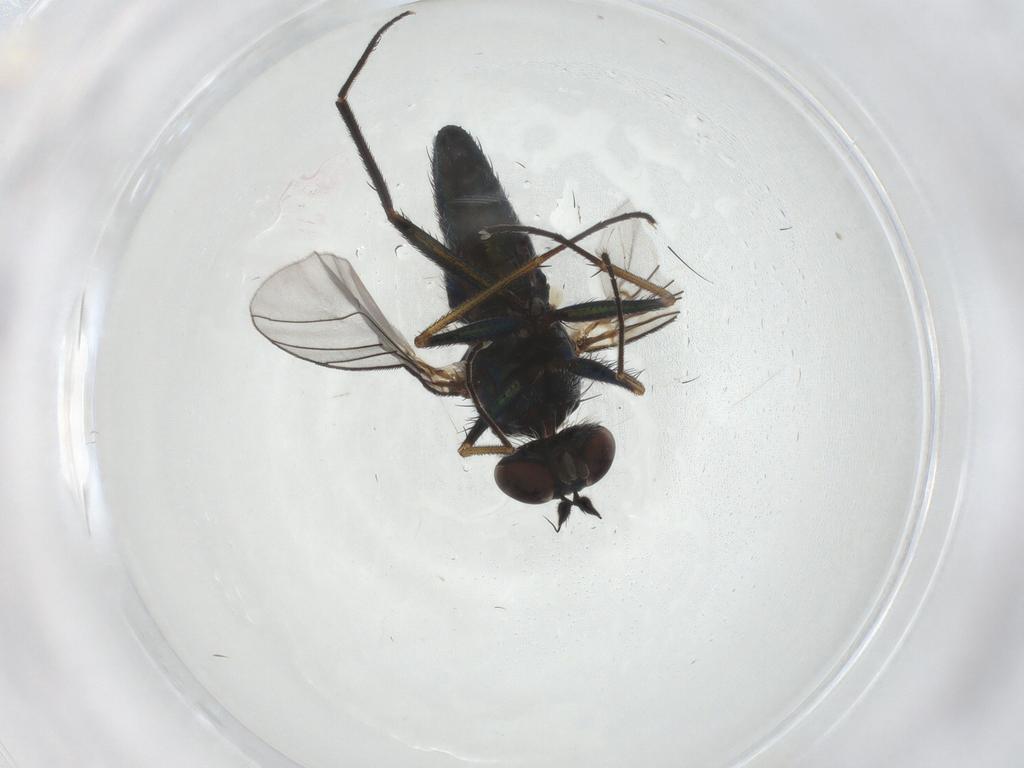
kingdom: Animalia
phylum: Arthropoda
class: Insecta
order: Diptera
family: Dolichopodidae
